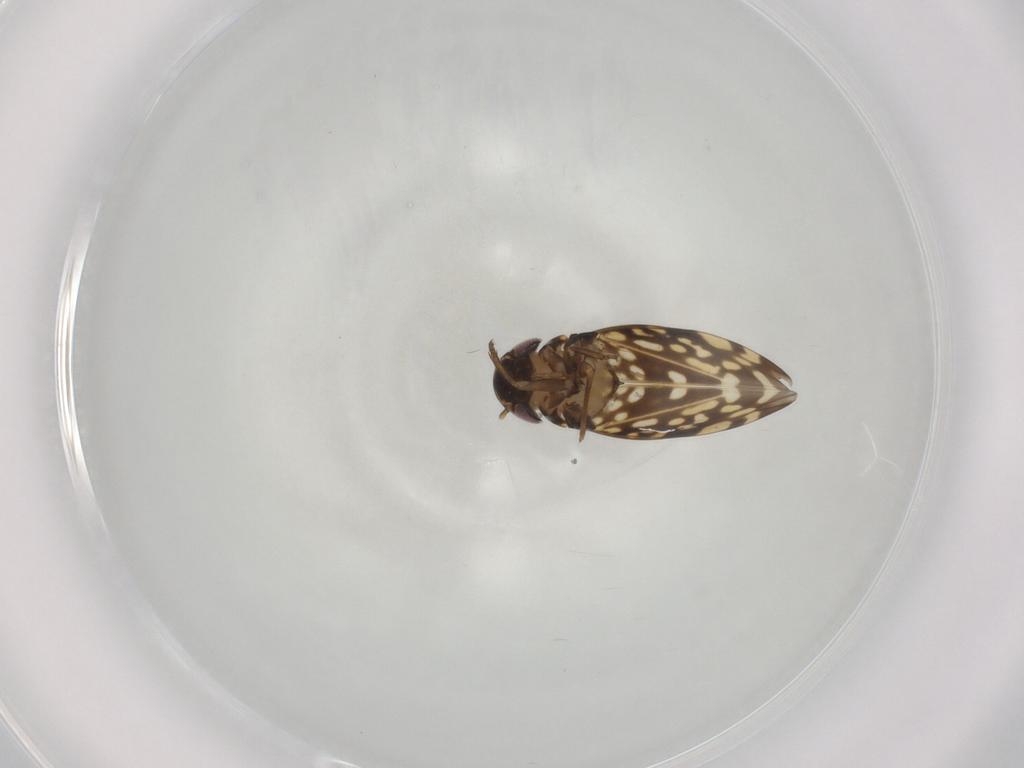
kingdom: Animalia
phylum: Arthropoda
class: Insecta
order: Hemiptera
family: Cicadellidae
